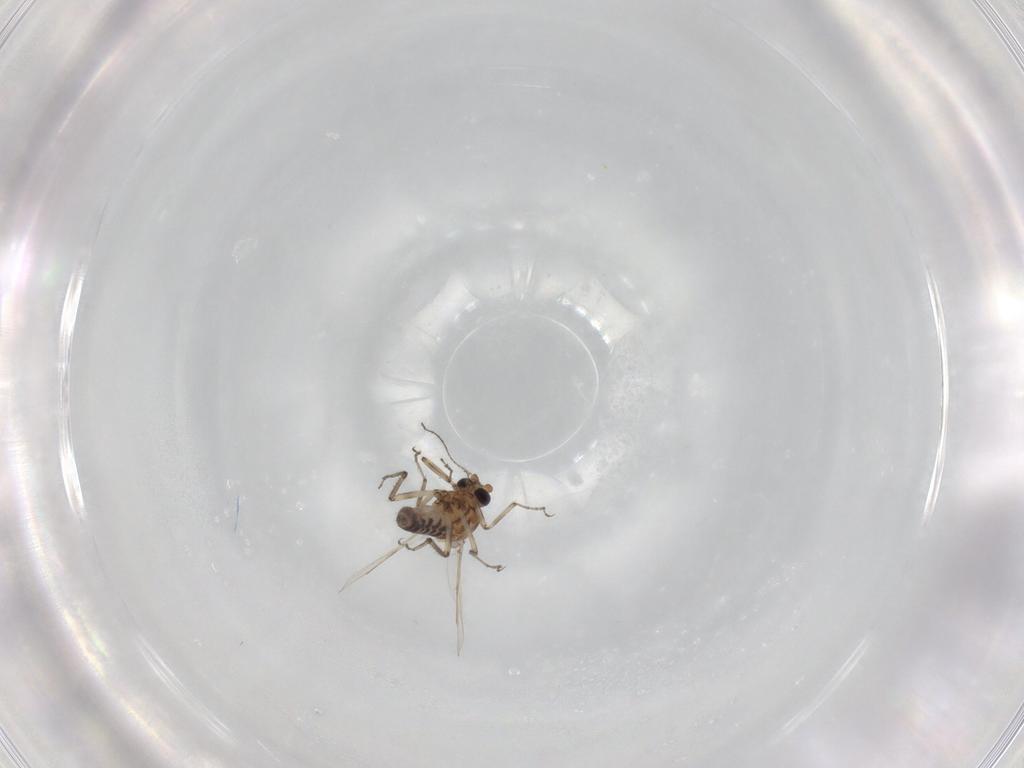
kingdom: Animalia
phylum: Arthropoda
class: Insecta
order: Diptera
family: Ceratopogonidae
